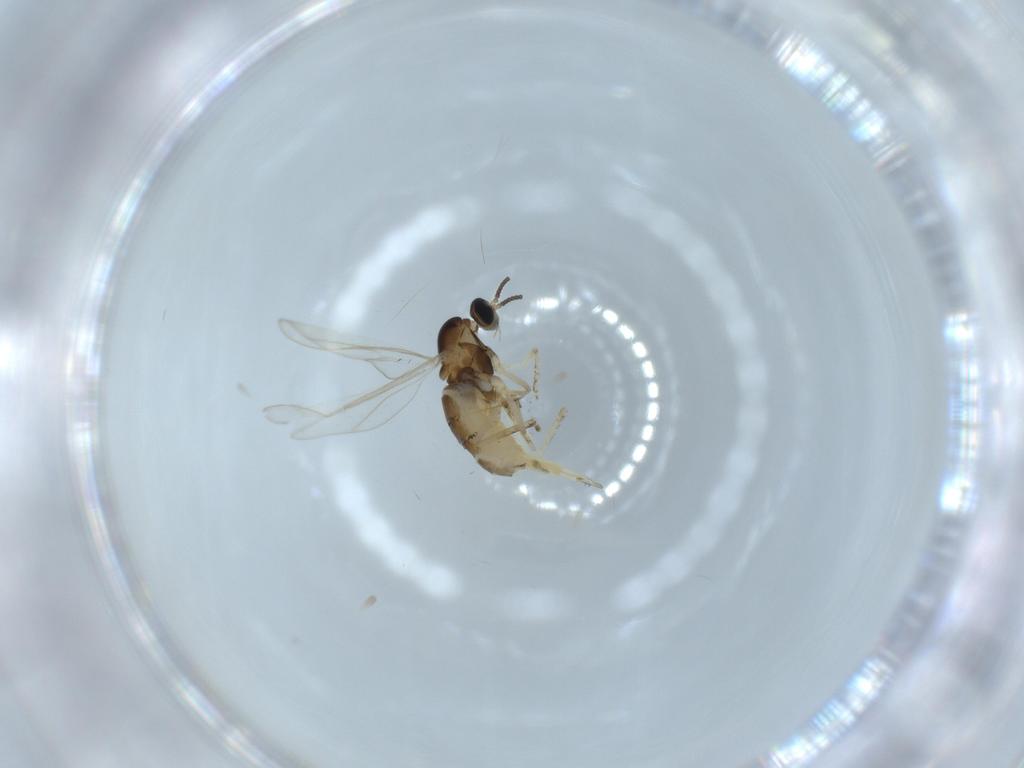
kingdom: Animalia
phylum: Arthropoda
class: Insecta
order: Diptera
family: Cecidomyiidae
